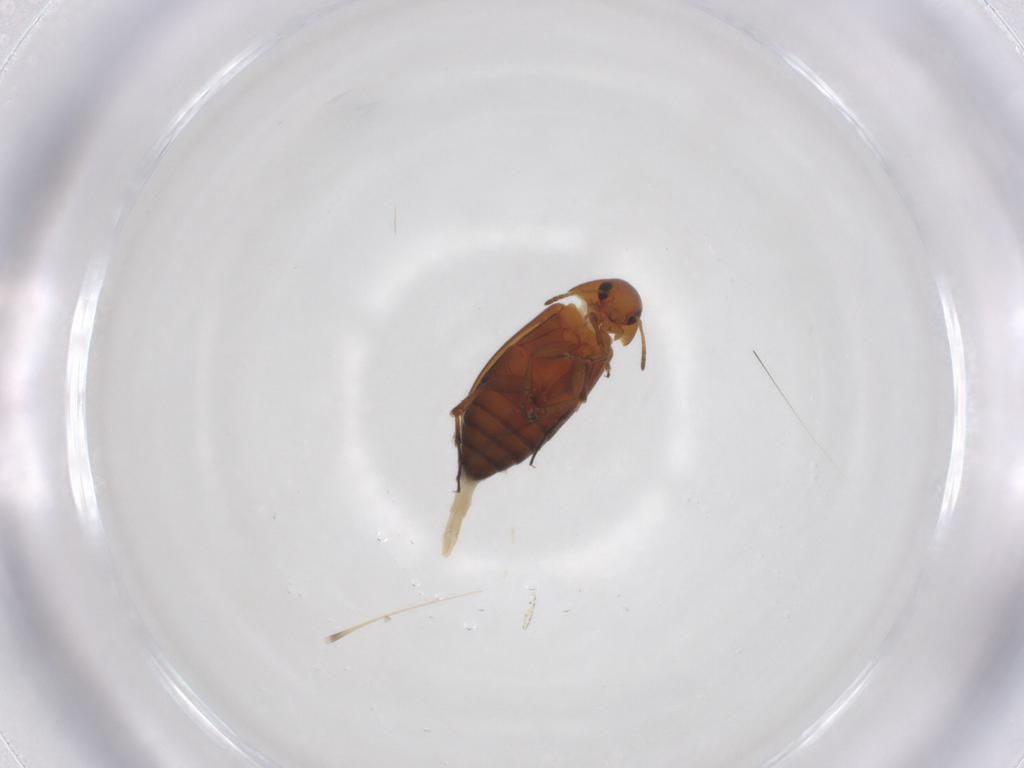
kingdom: Animalia
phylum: Arthropoda
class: Insecta
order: Coleoptera
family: Scraptiidae
